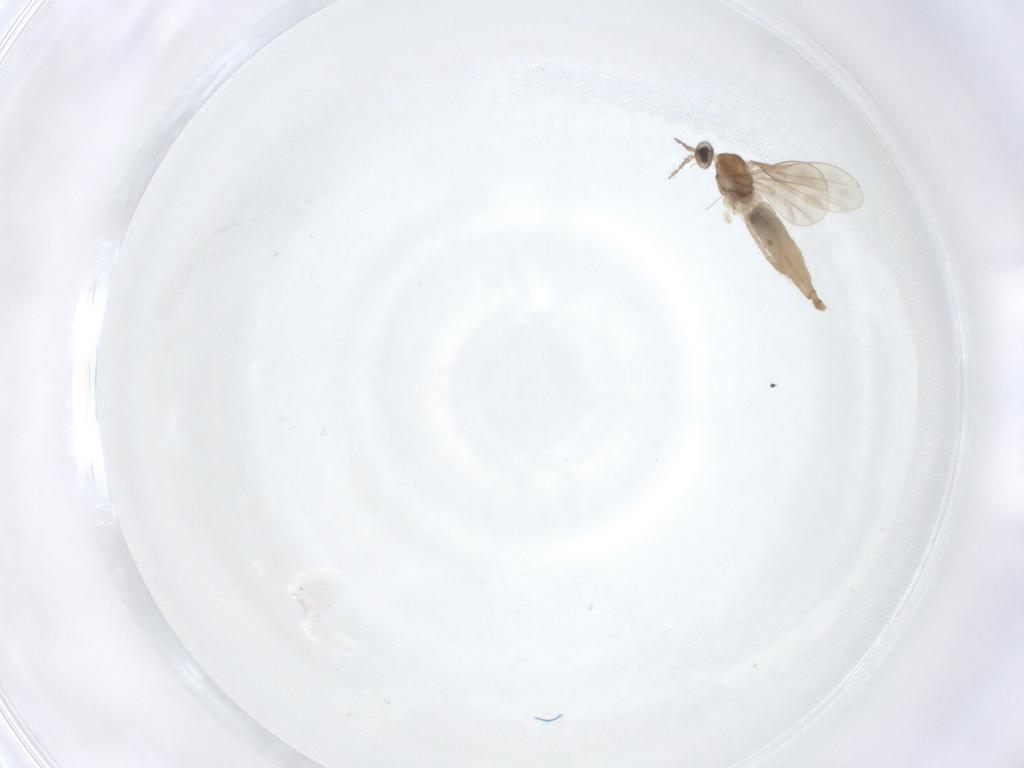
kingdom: Animalia
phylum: Arthropoda
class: Insecta
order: Diptera
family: Cecidomyiidae
